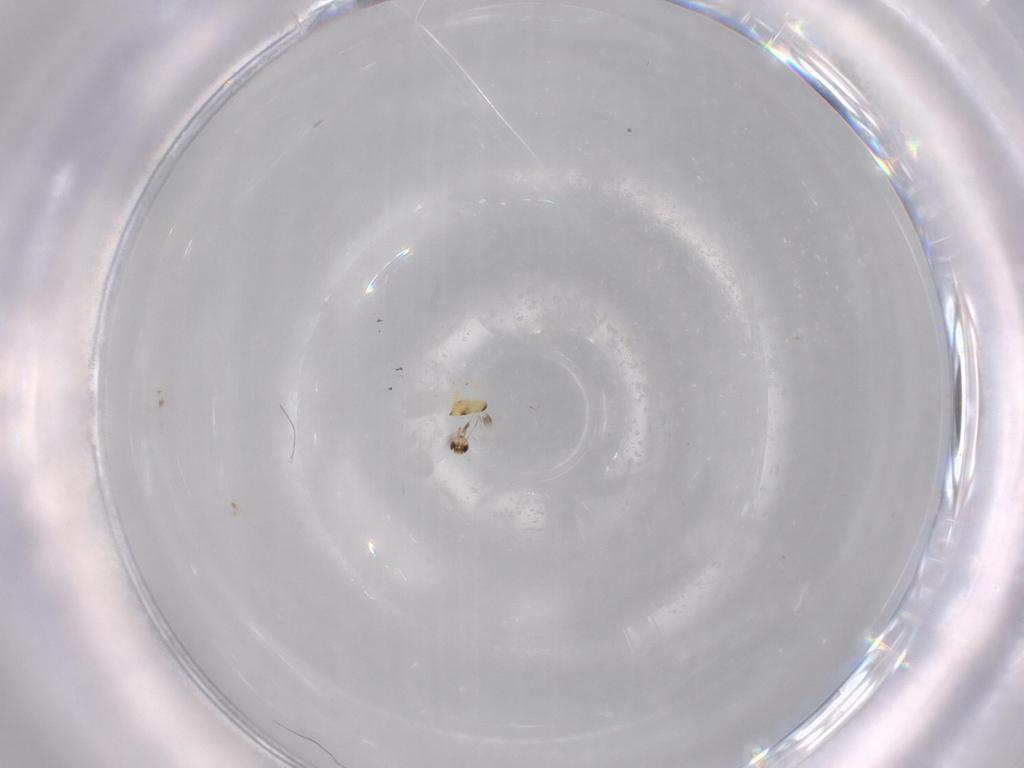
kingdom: Animalia
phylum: Arthropoda
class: Insecta
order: Hymenoptera
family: Signiphoridae
